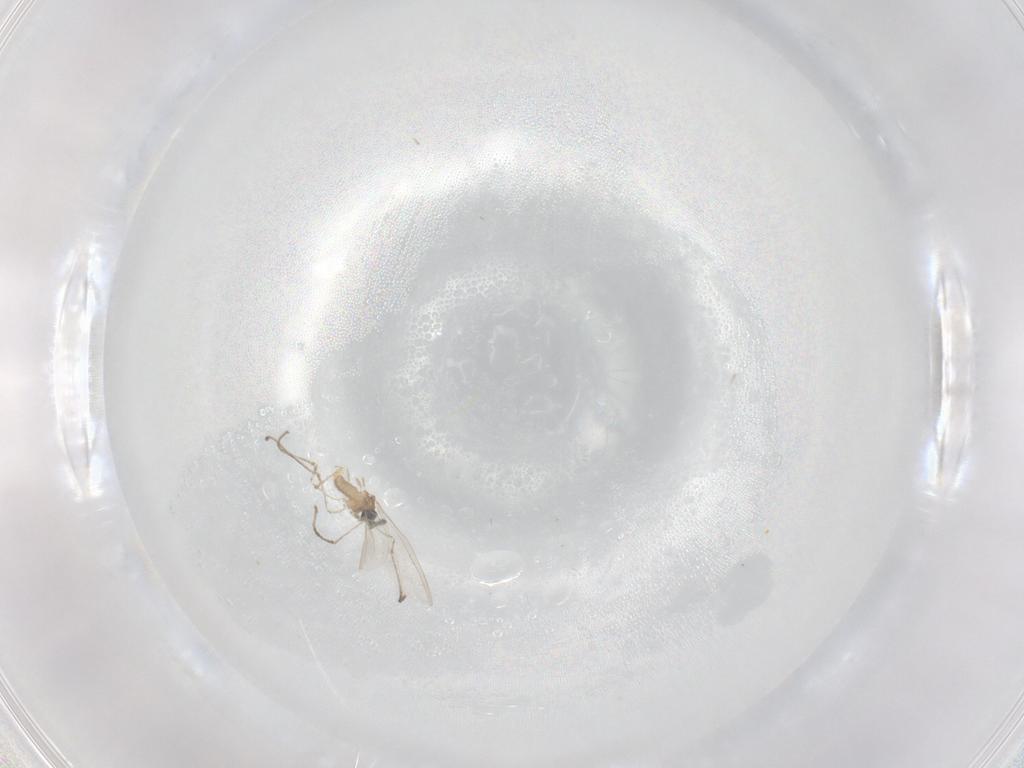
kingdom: Animalia
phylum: Arthropoda
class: Insecta
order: Diptera
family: Cecidomyiidae
